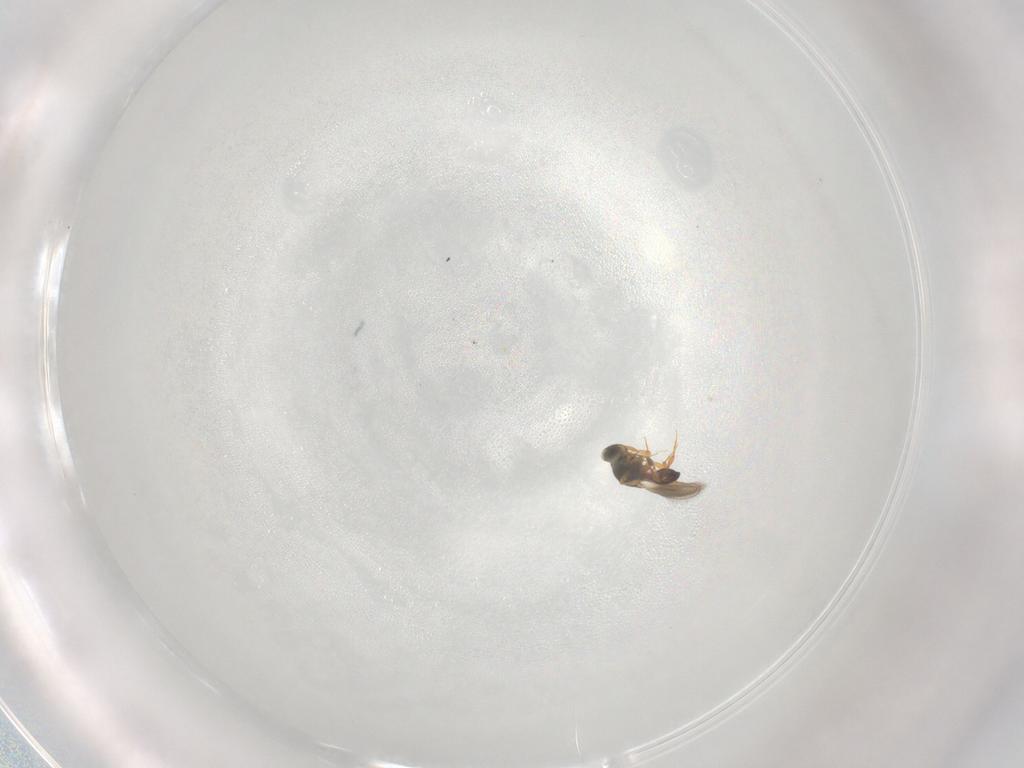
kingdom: Animalia
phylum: Arthropoda
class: Insecta
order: Hymenoptera
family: Platygastridae
